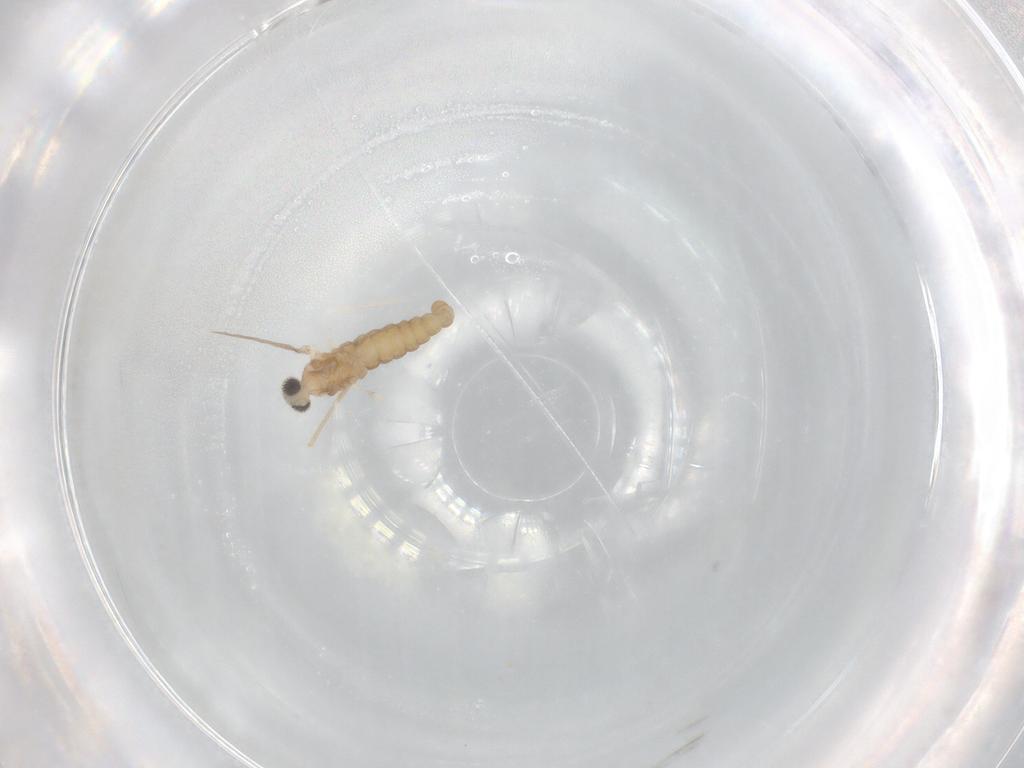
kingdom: Animalia
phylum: Arthropoda
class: Insecta
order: Diptera
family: Cecidomyiidae
